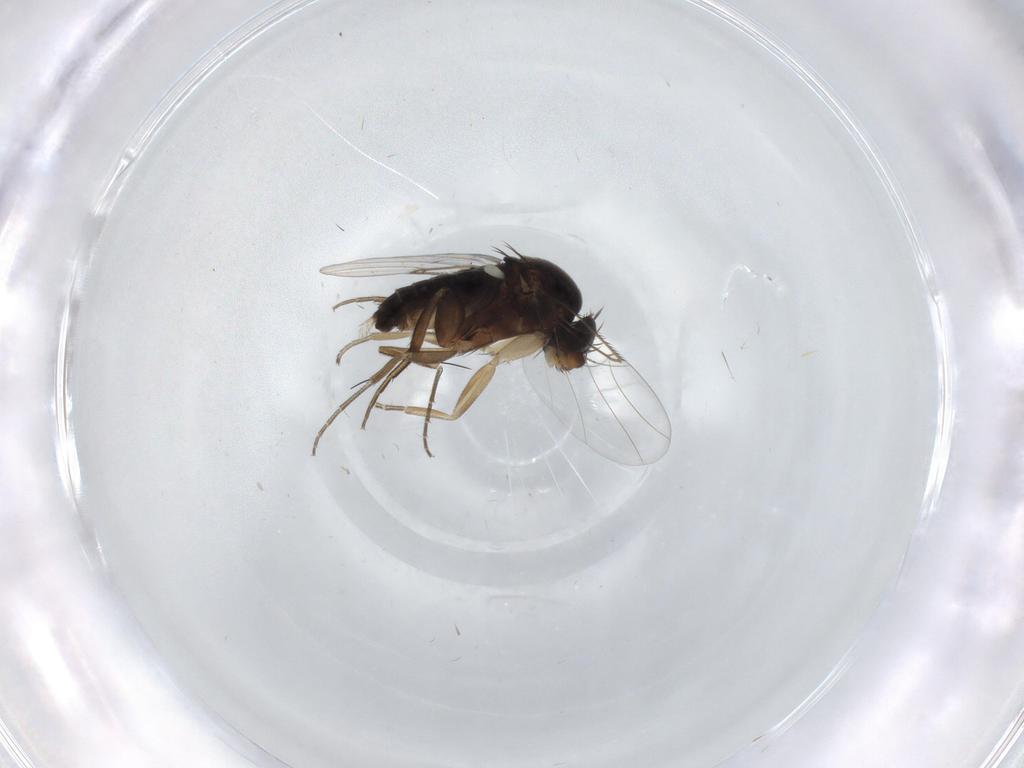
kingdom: Animalia
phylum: Arthropoda
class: Insecta
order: Diptera
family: Phoridae
